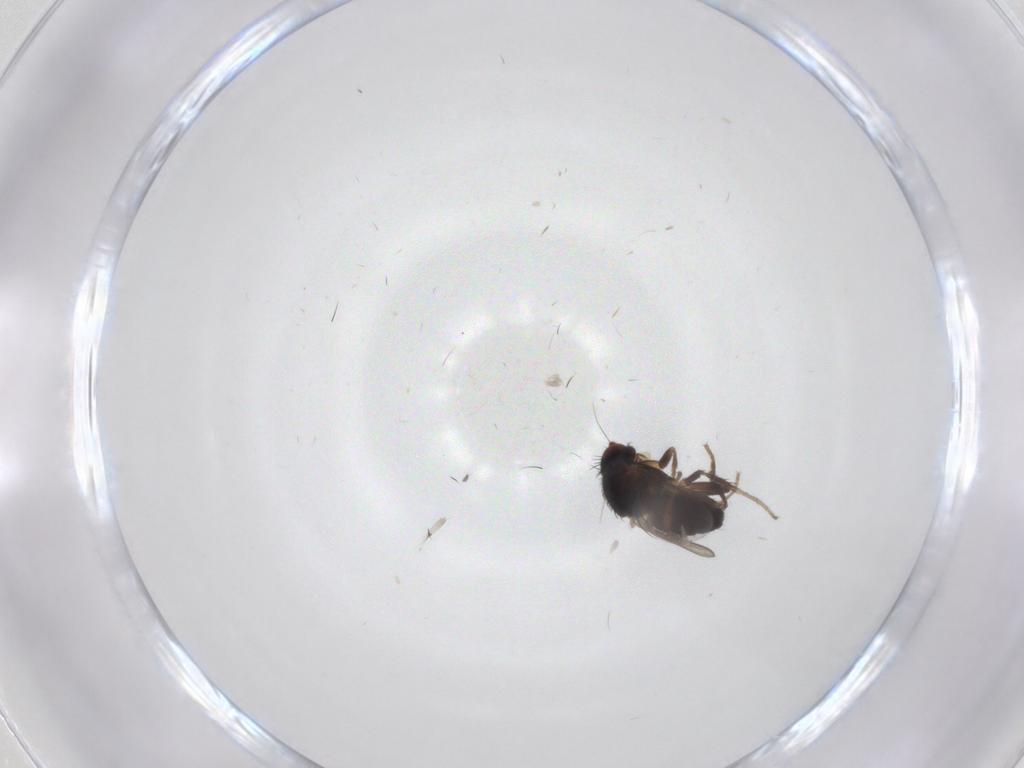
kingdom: Animalia
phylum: Arthropoda
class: Insecta
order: Diptera
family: Sphaeroceridae
